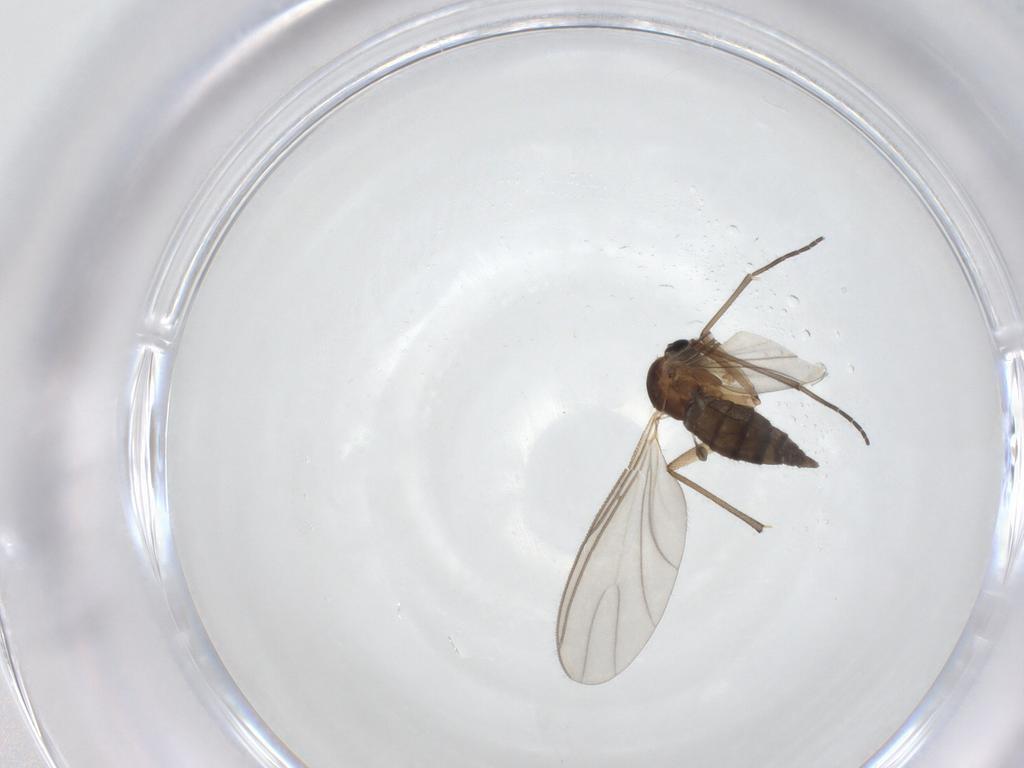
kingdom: Animalia
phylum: Arthropoda
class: Insecta
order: Diptera
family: Sciaridae
